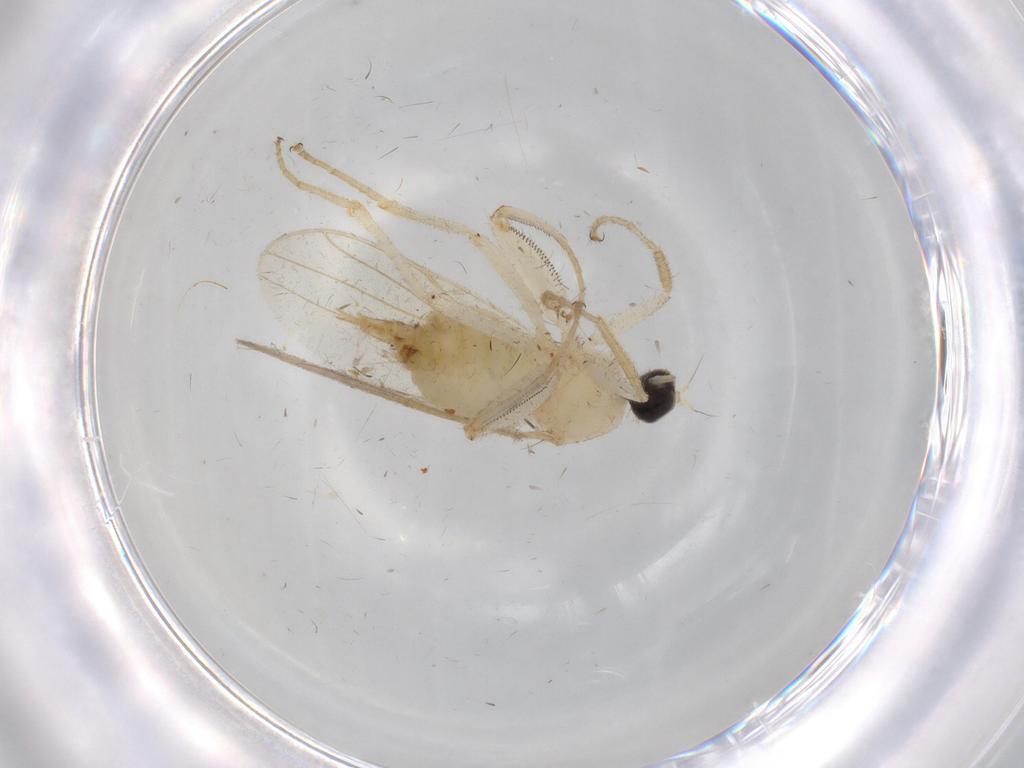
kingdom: Animalia
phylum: Arthropoda
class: Insecta
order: Diptera
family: Hybotidae
